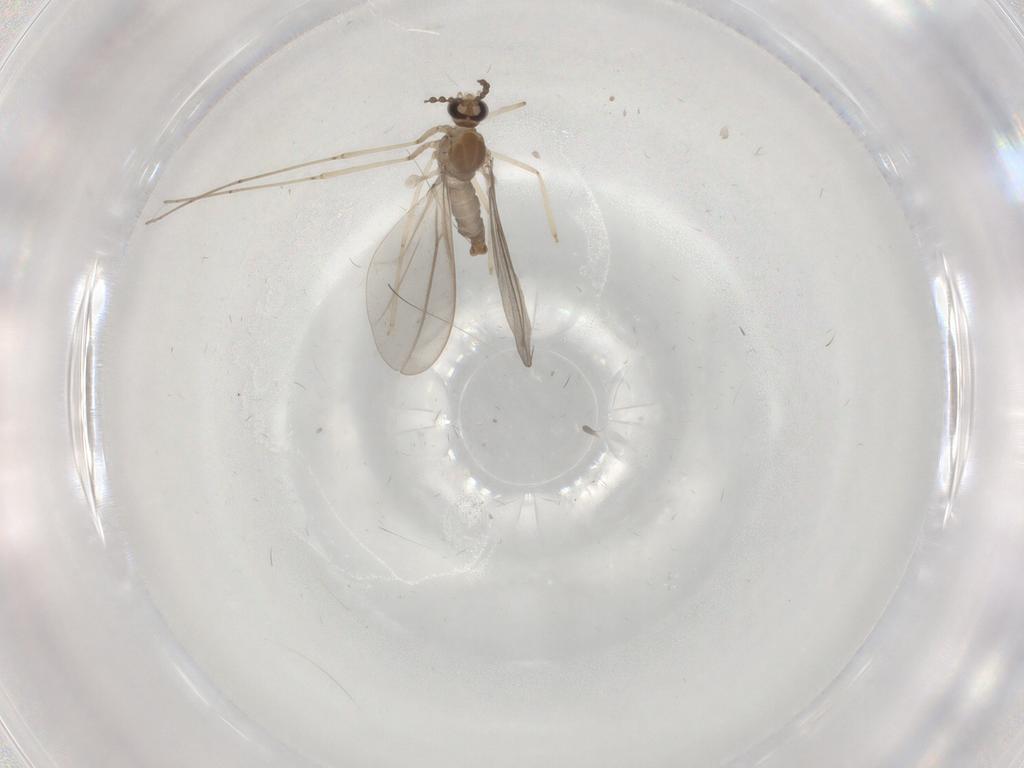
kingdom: Animalia
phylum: Arthropoda
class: Insecta
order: Diptera
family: Cecidomyiidae
